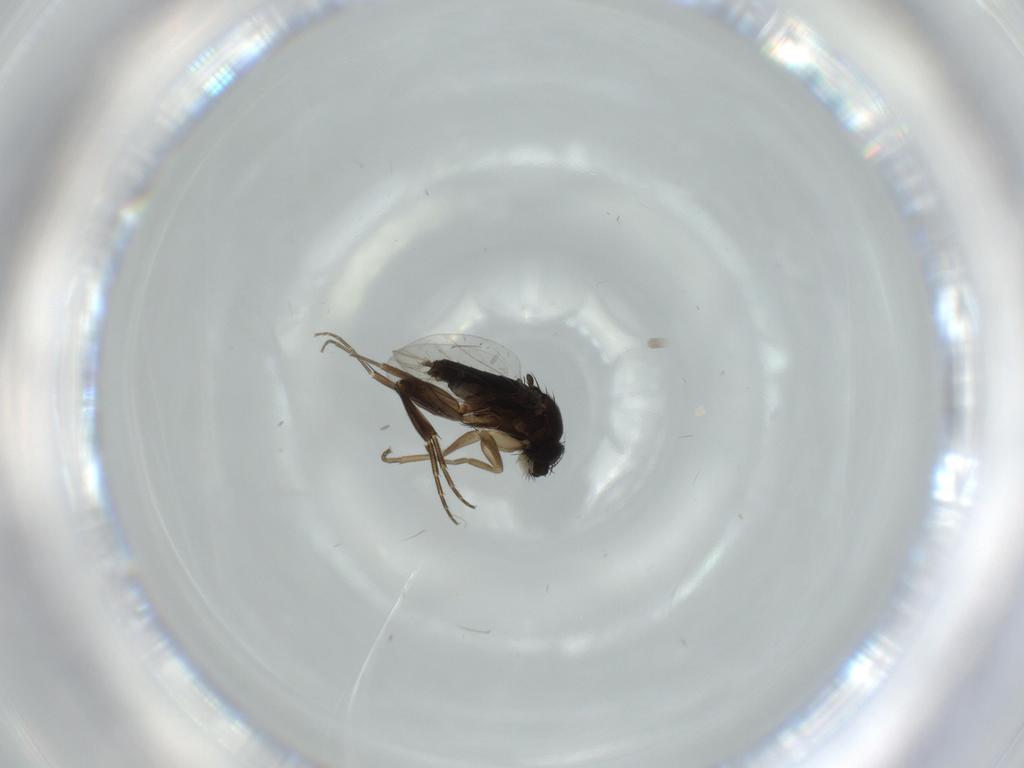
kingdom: Animalia
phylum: Arthropoda
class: Insecta
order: Diptera
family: Phoridae
